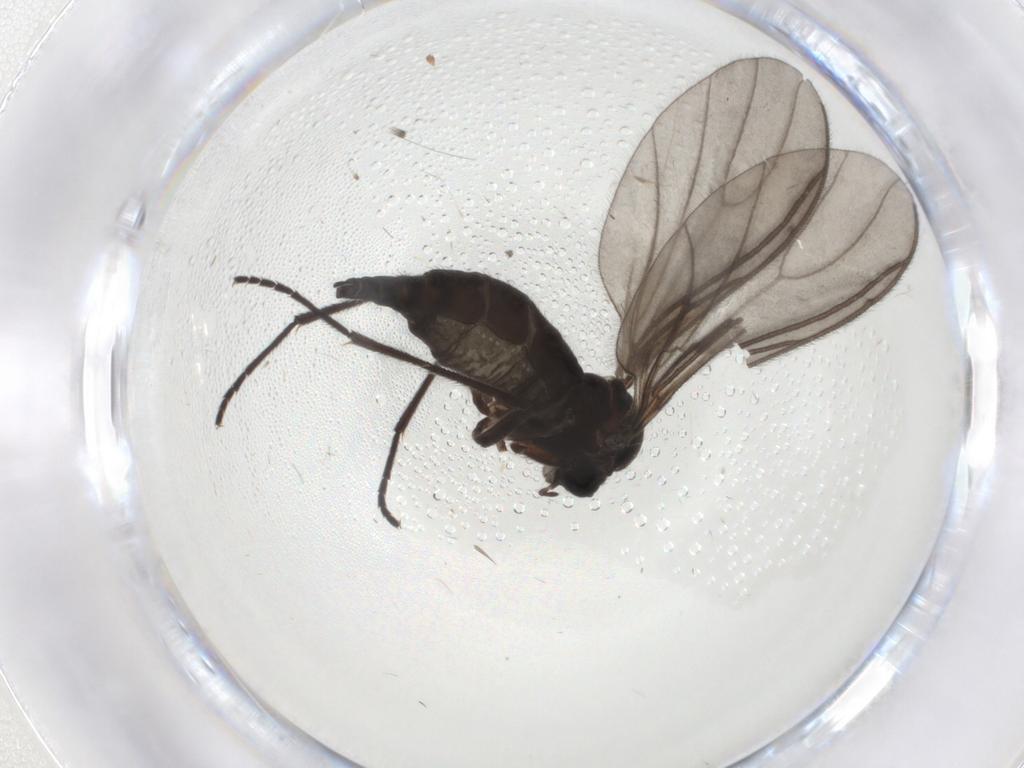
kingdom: Animalia
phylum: Arthropoda
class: Insecta
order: Diptera
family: Sciaridae
